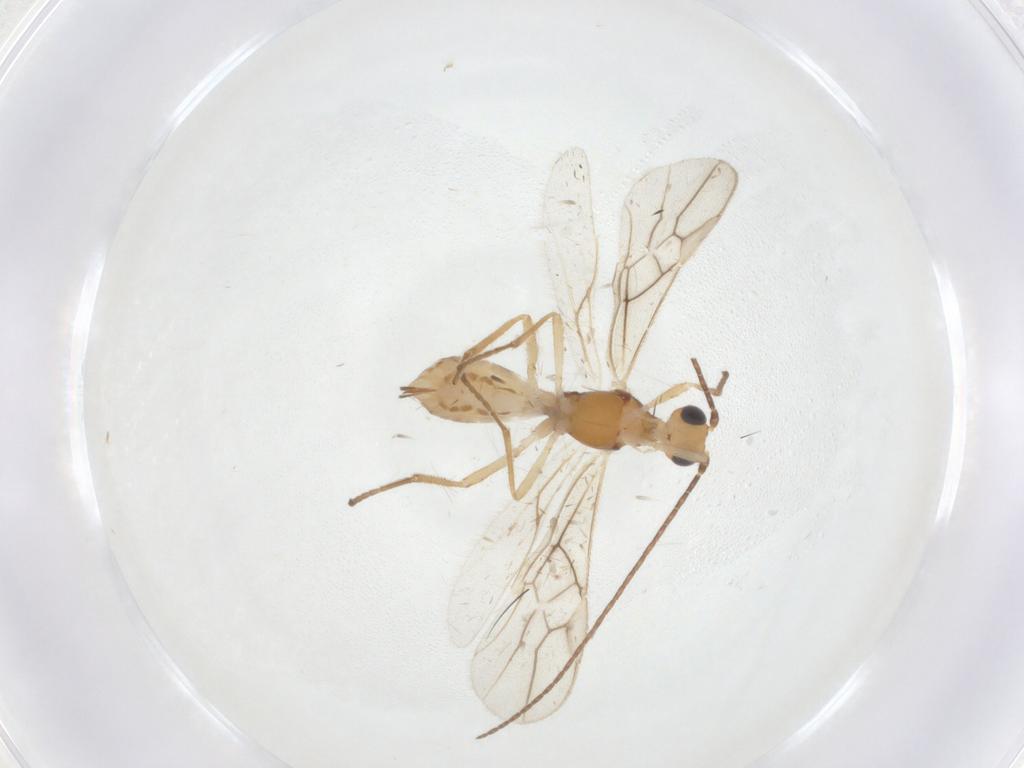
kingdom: Animalia
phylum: Arthropoda
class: Insecta
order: Hymenoptera
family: Braconidae
